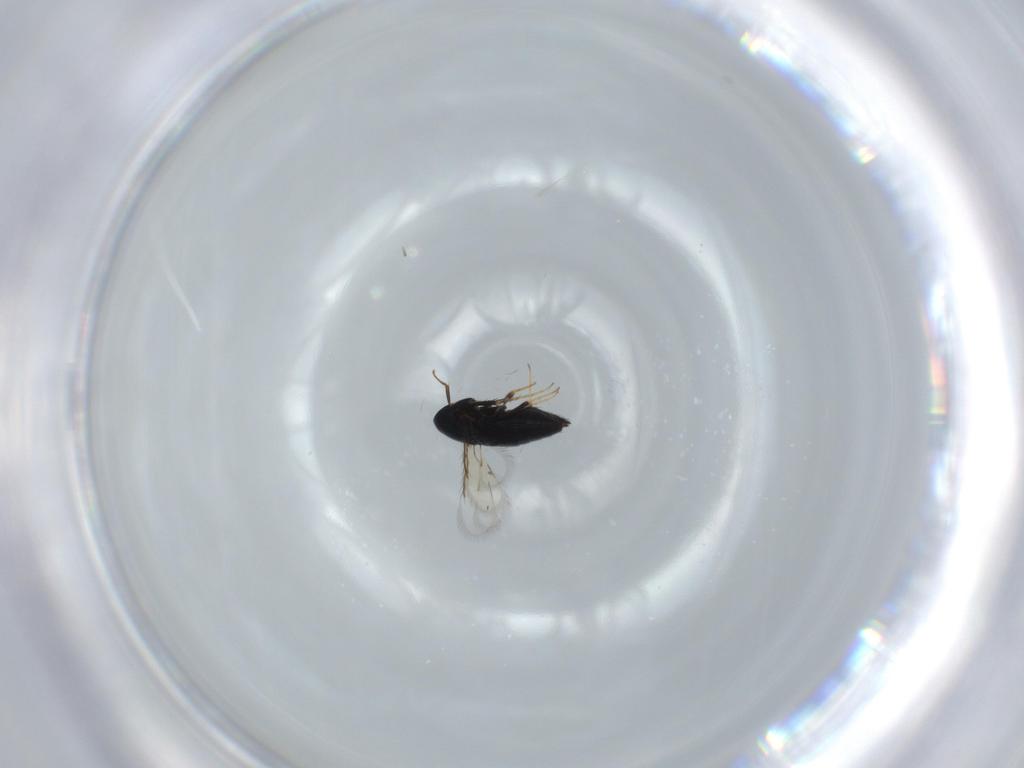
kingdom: Animalia
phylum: Arthropoda
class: Insecta
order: Hymenoptera
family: Signiphoridae
